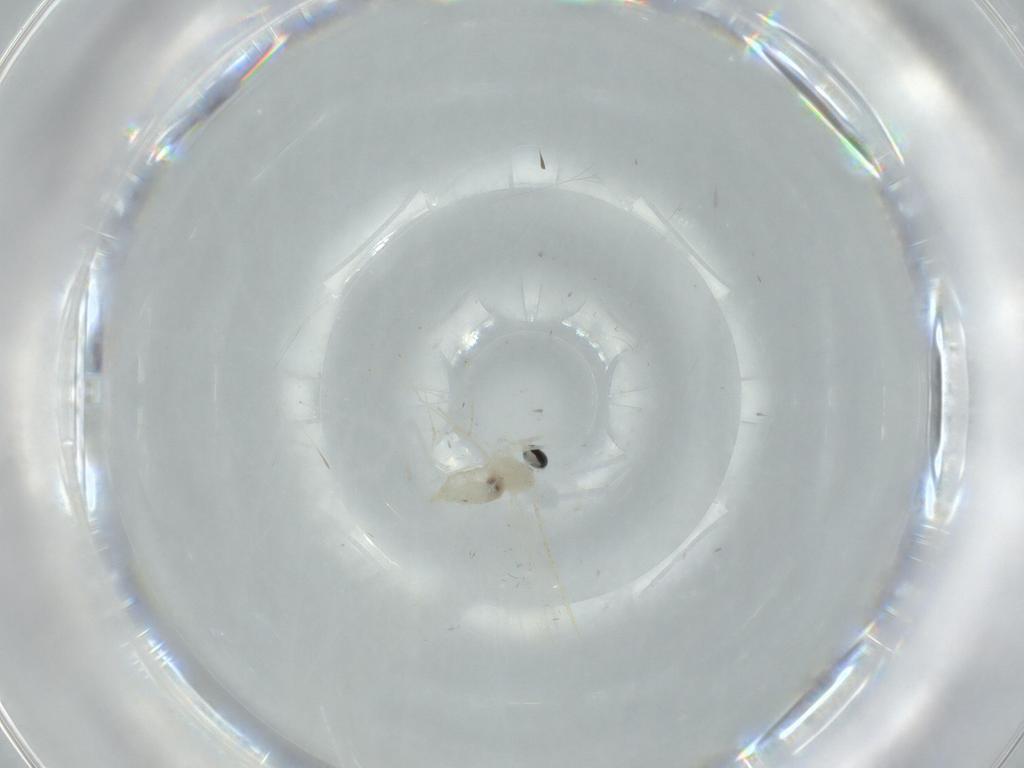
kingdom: Animalia
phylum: Arthropoda
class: Insecta
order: Diptera
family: Cecidomyiidae
